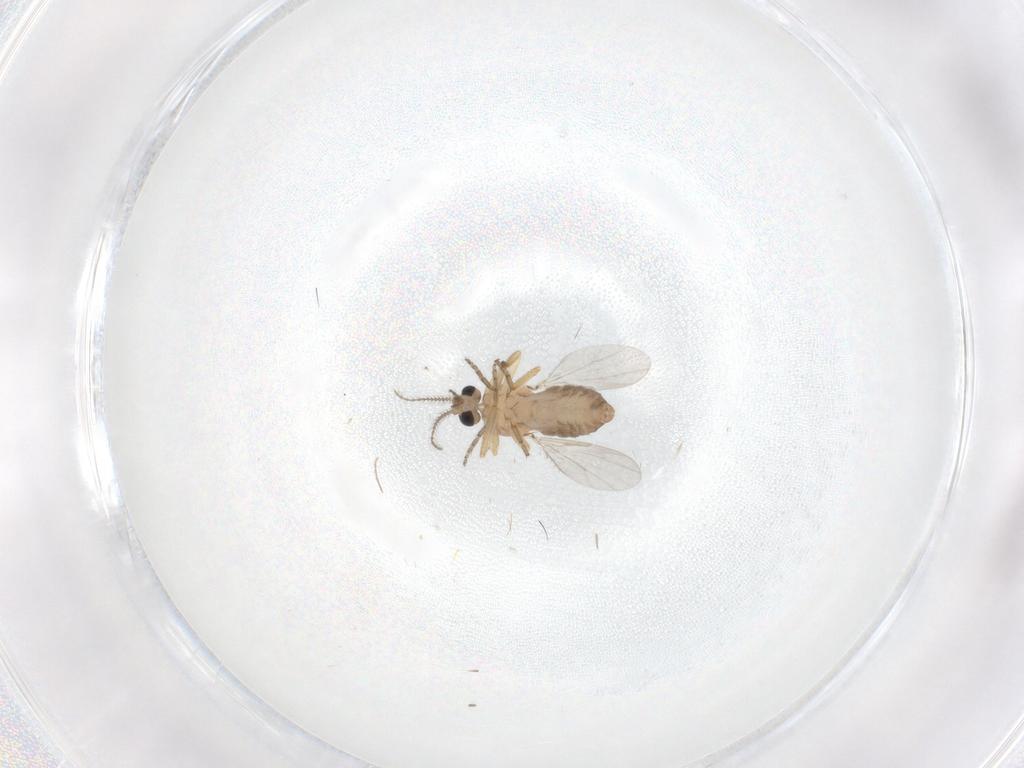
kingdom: Animalia
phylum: Arthropoda
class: Insecta
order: Diptera
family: Ceratopogonidae
